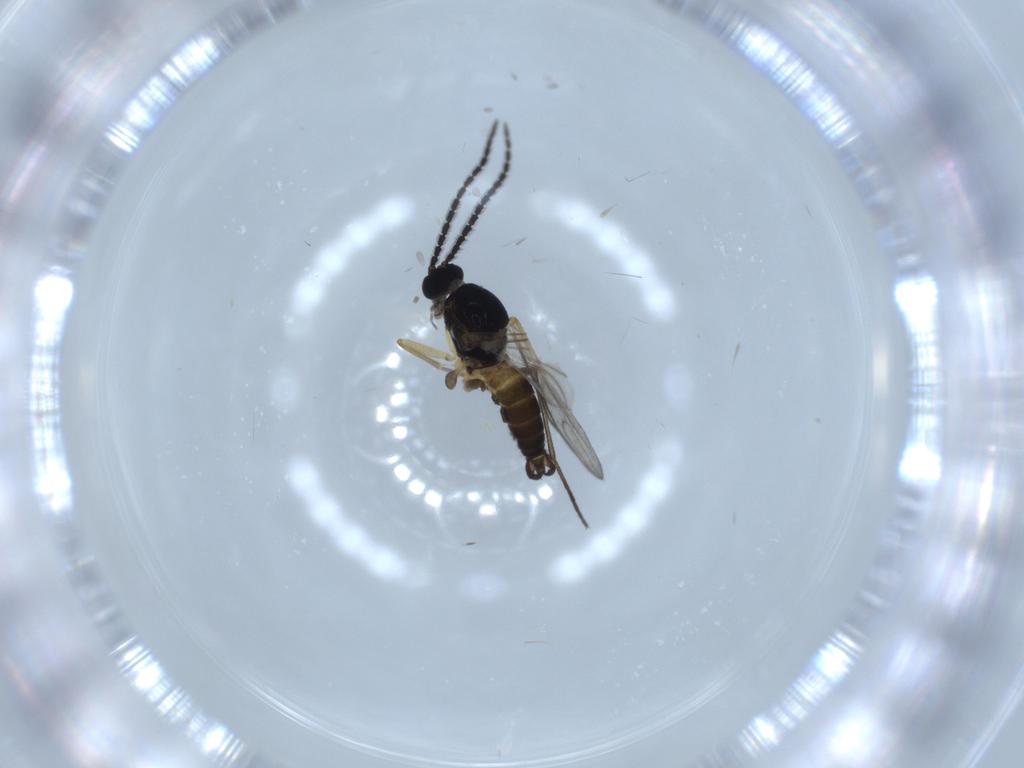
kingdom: Animalia
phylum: Arthropoda
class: Insecta
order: Diptera
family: Sciaridae
